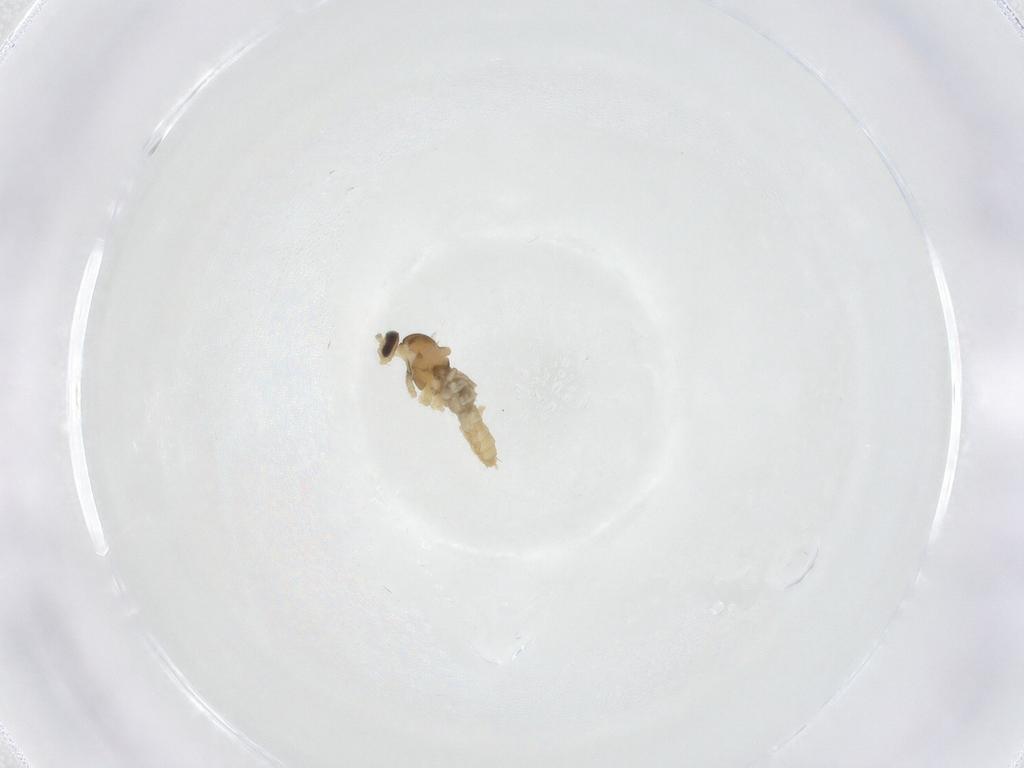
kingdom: Animalia
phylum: Arthropoda
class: Insecta
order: Diptera
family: Cecidomyiidae
